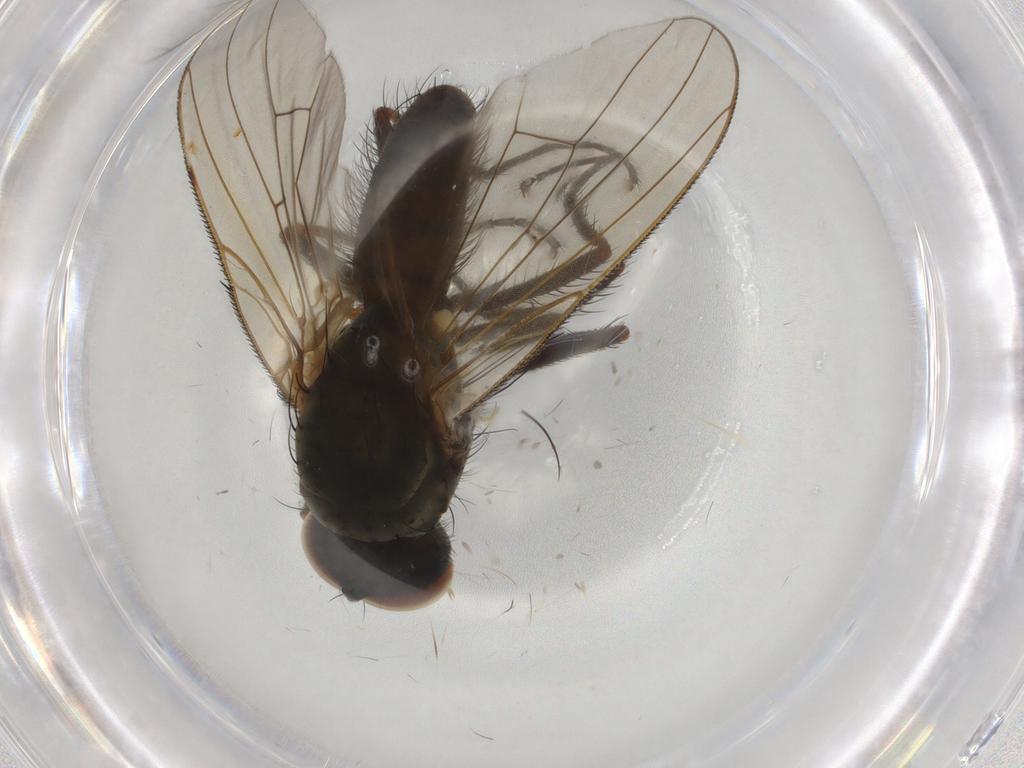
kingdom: Animalia
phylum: Arthropoda
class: Insecta
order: Diptera
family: Anthomyiidae
